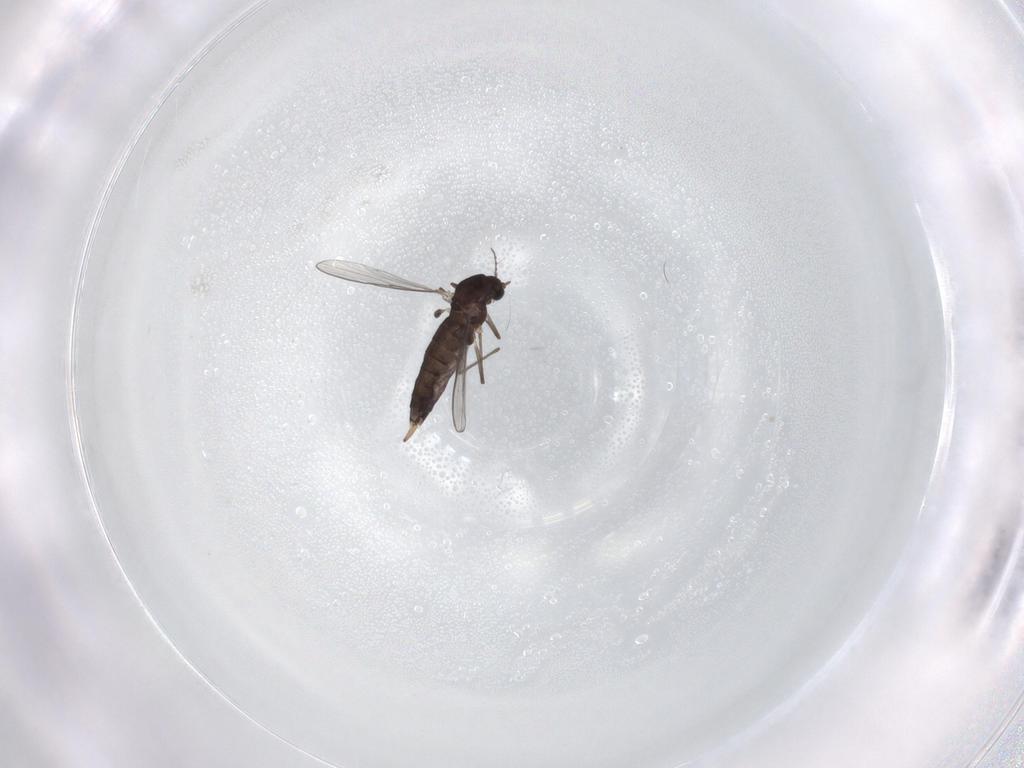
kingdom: Animalia
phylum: Arthropoda
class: Insecta
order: Diptera
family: Chironomidae
